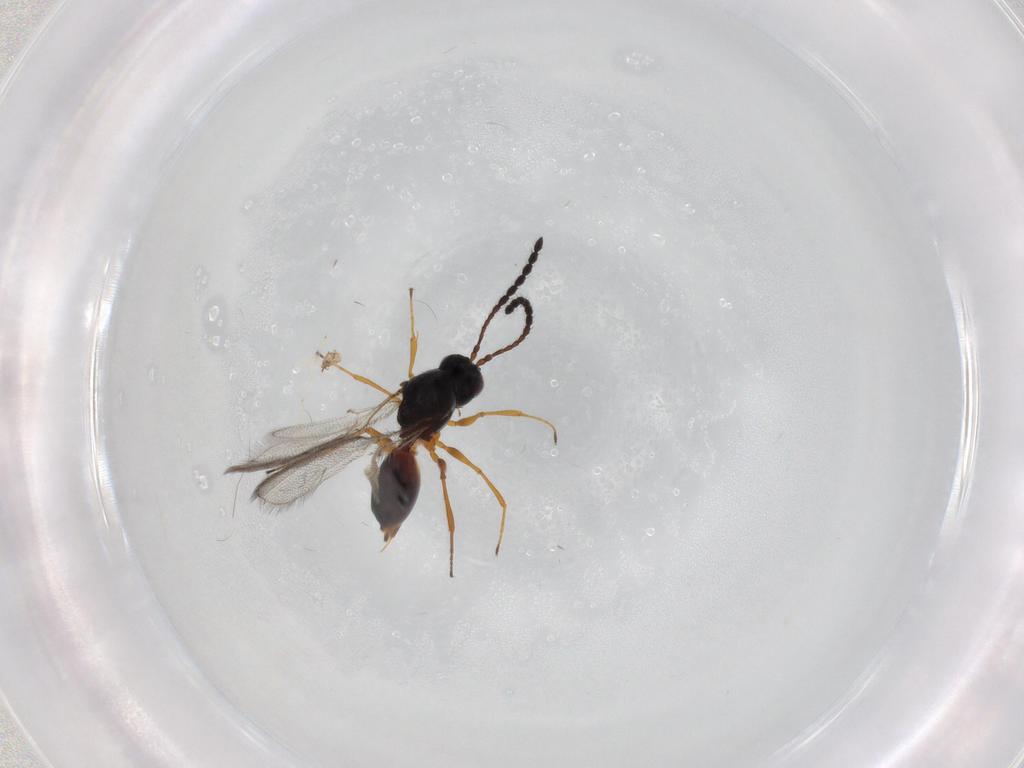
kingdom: Animalia
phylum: Arthropoda
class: Insecta
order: Hymenoptera
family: Figitidae
